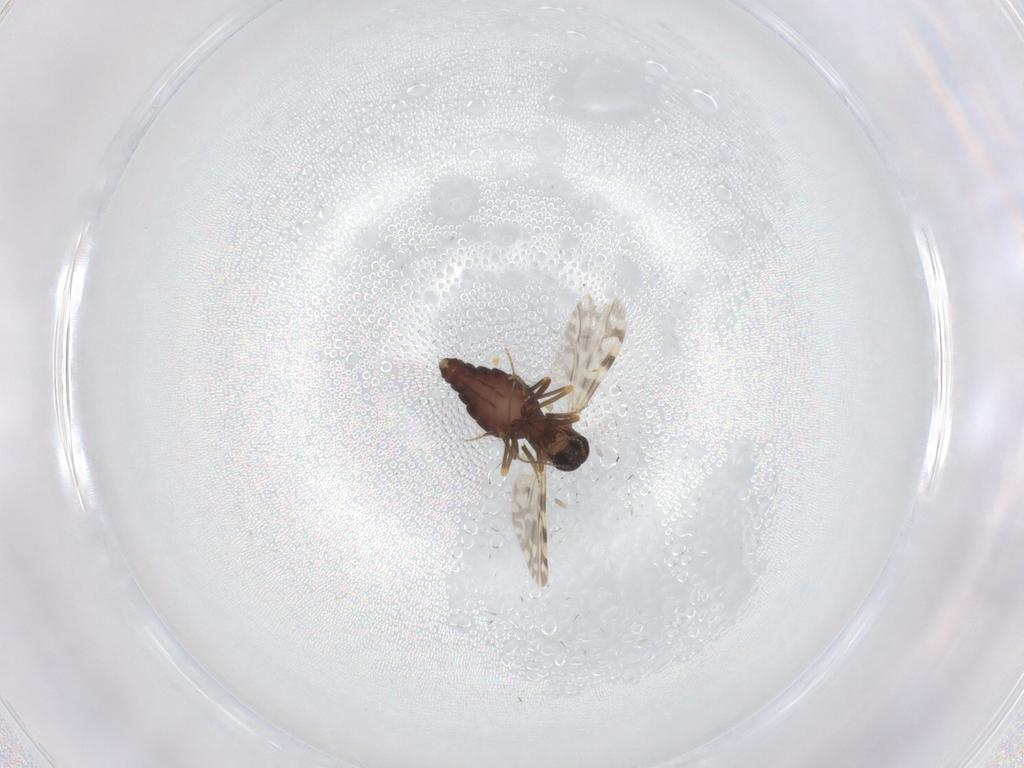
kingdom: Animalia
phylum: Arthropoda
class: Insecta
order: Diptera
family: Ceratopogonidae
